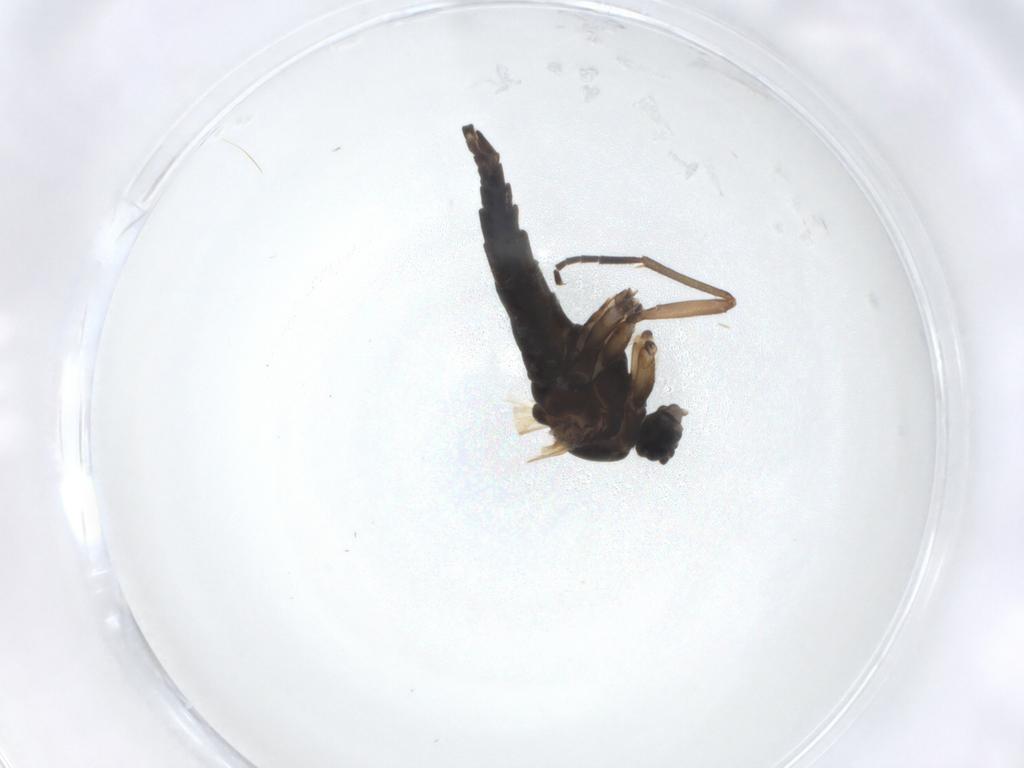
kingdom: Animalia
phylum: Arthropoda
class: Insecta
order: Diptera
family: Sciaridae
